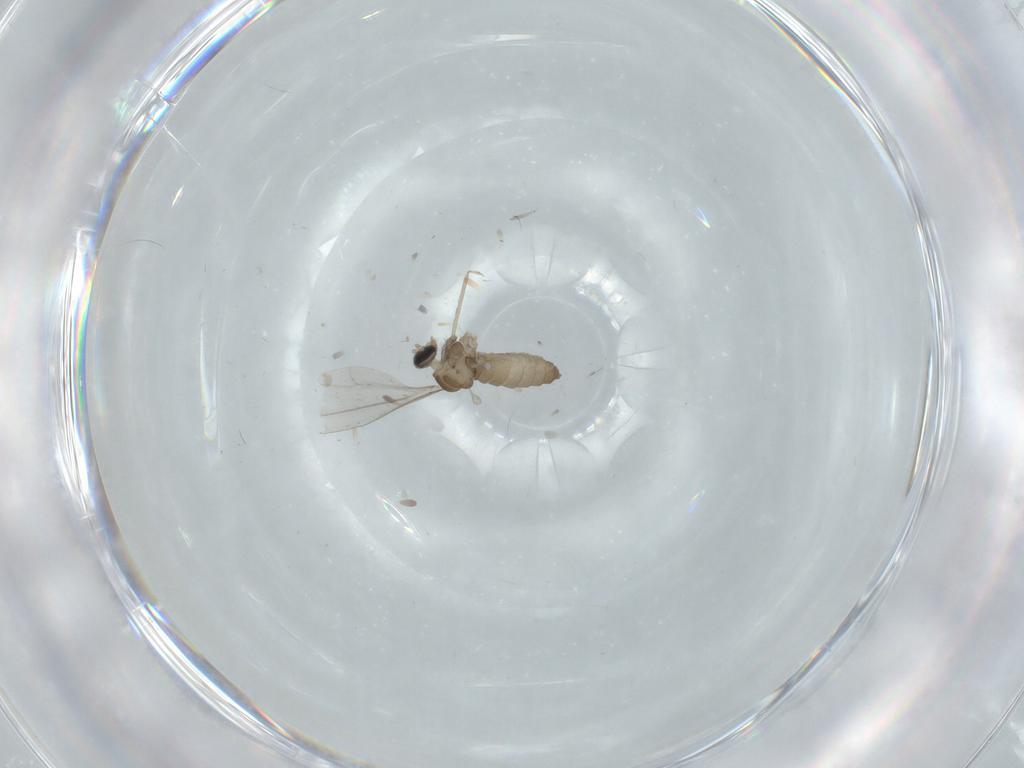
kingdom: Animalia
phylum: Arthropoda
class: Insecta
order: Diptera
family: Cecidomyiidae
